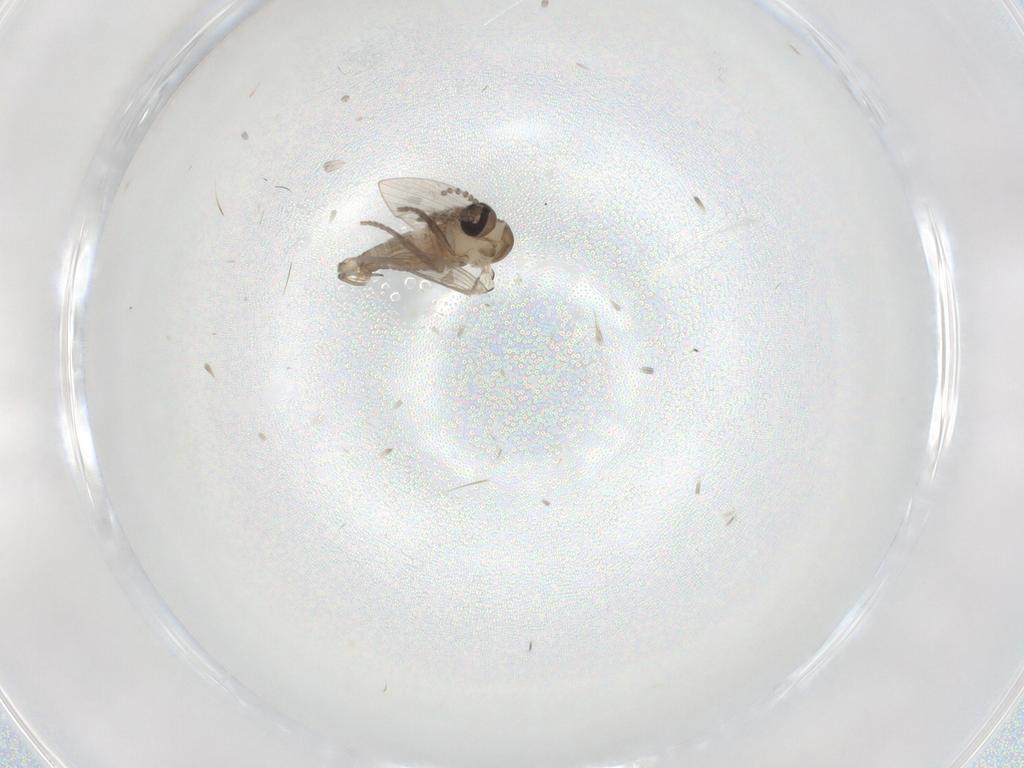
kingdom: Animalia
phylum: Arthropoda
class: Insecta
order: Diptera
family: Psychodidae
